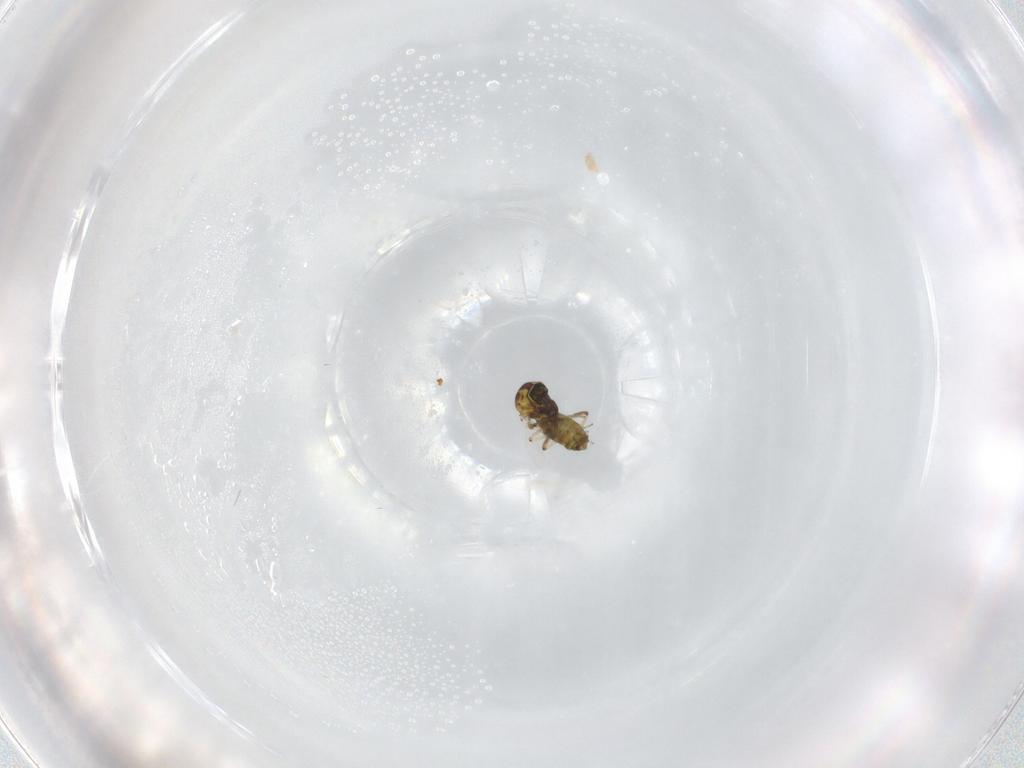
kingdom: Animalia
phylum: Arthropoda
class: Insecta
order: Diptera
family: Ceratopogonidae
